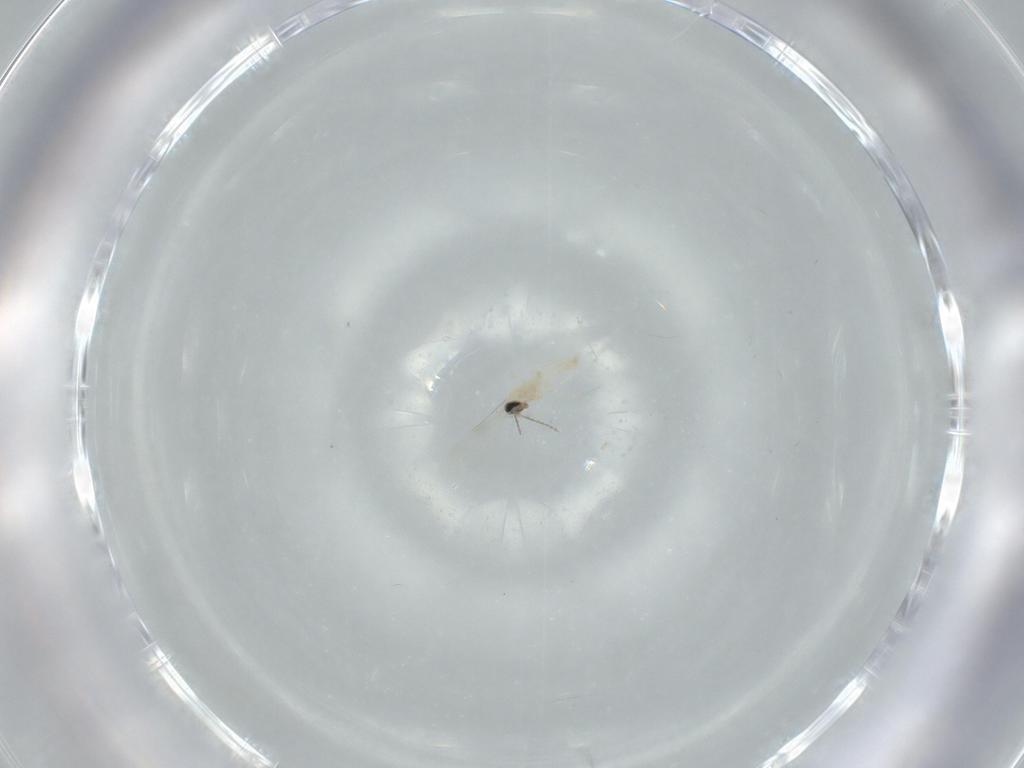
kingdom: Animalia
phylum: Arthropoda
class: Insecta
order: Diptera
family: Cecidomyiidae
